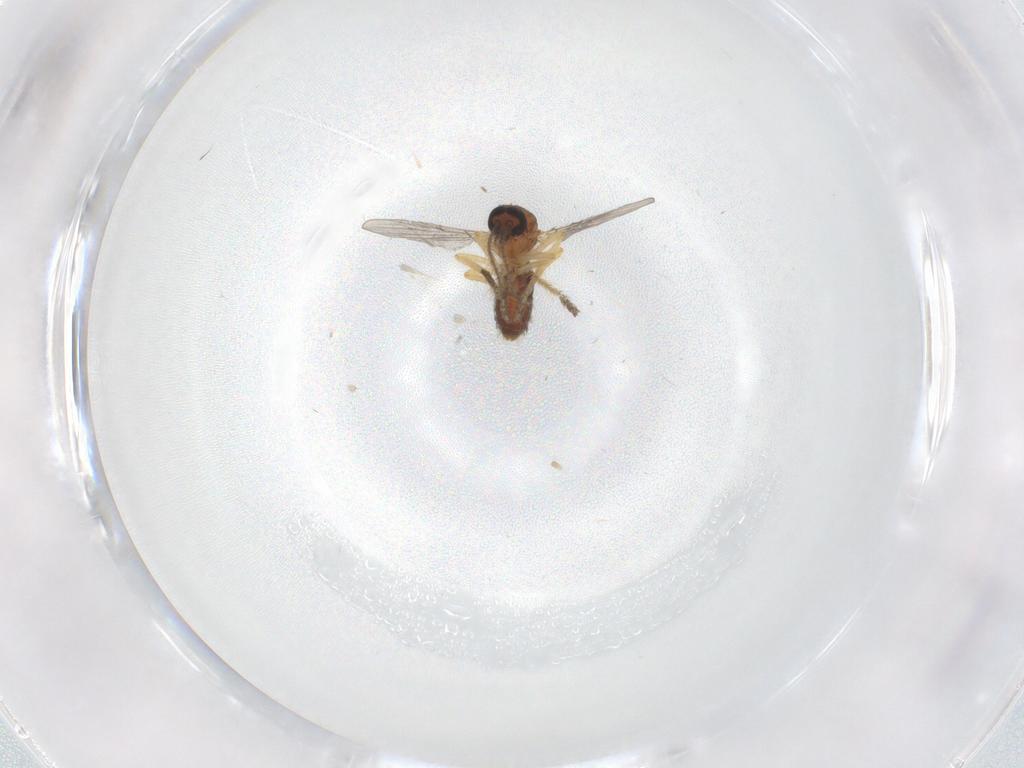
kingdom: Animalia
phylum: Arthropoda
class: Insecta
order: Diptera
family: Ceratopogonidae
